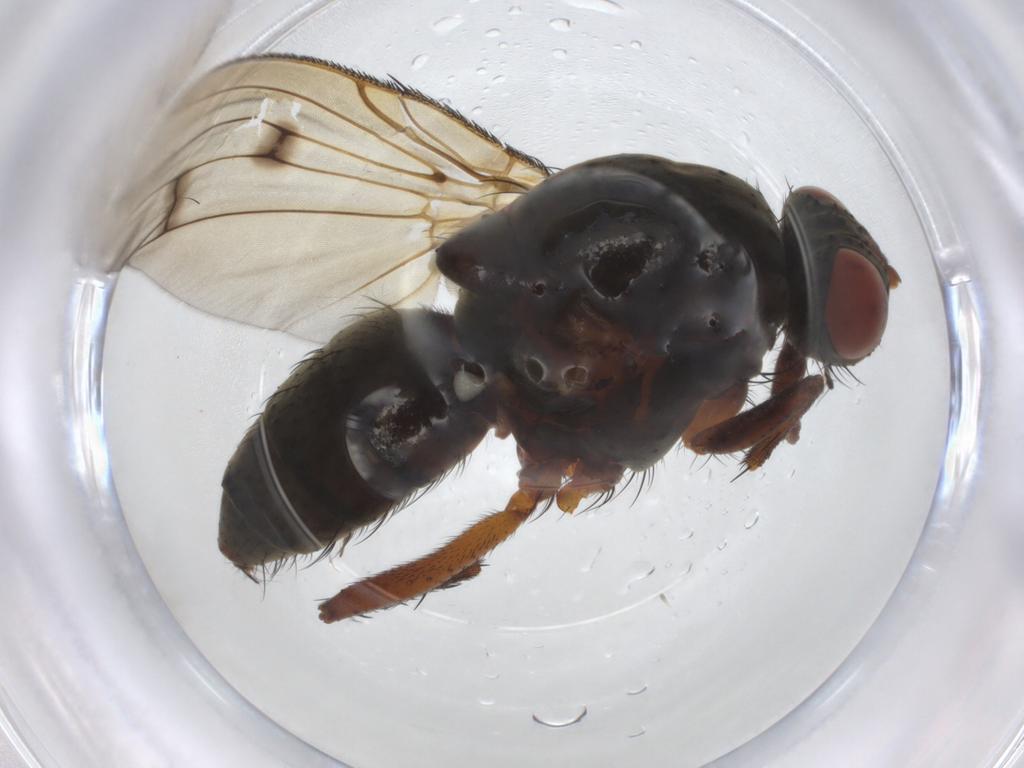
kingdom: Animalia
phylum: Arthropoda
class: Insecta
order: Diptera
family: Anthomyiidae
